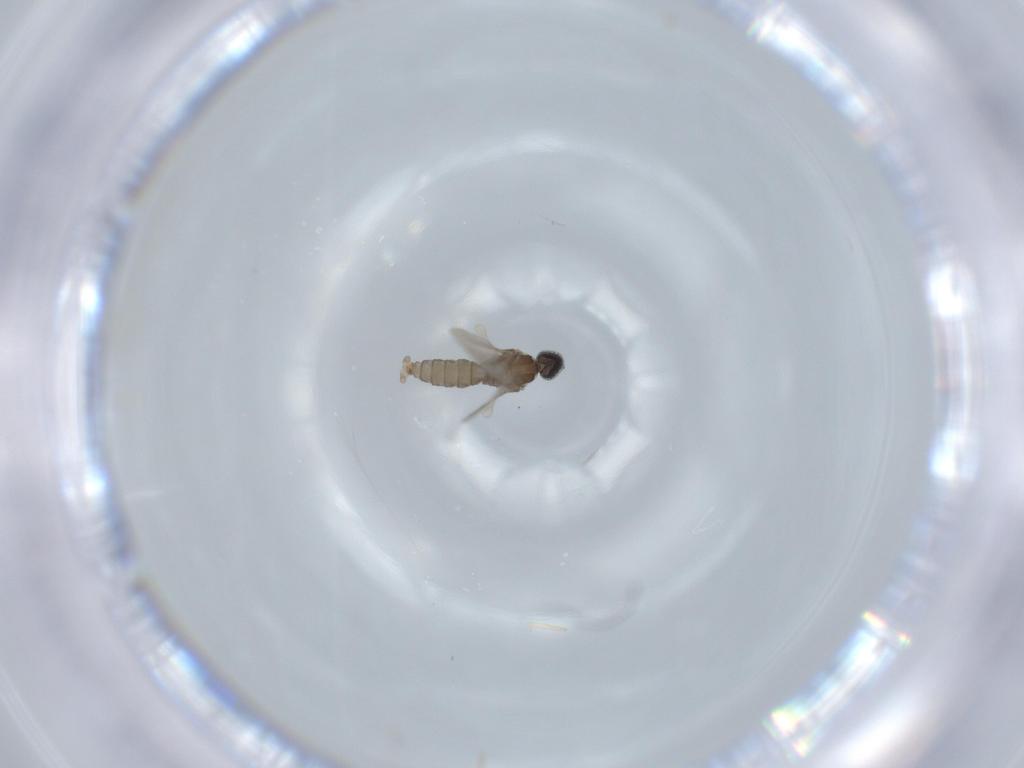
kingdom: Animalia
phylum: Arthropoda
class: Insecta
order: Diptera
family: Cecidomyiidae
